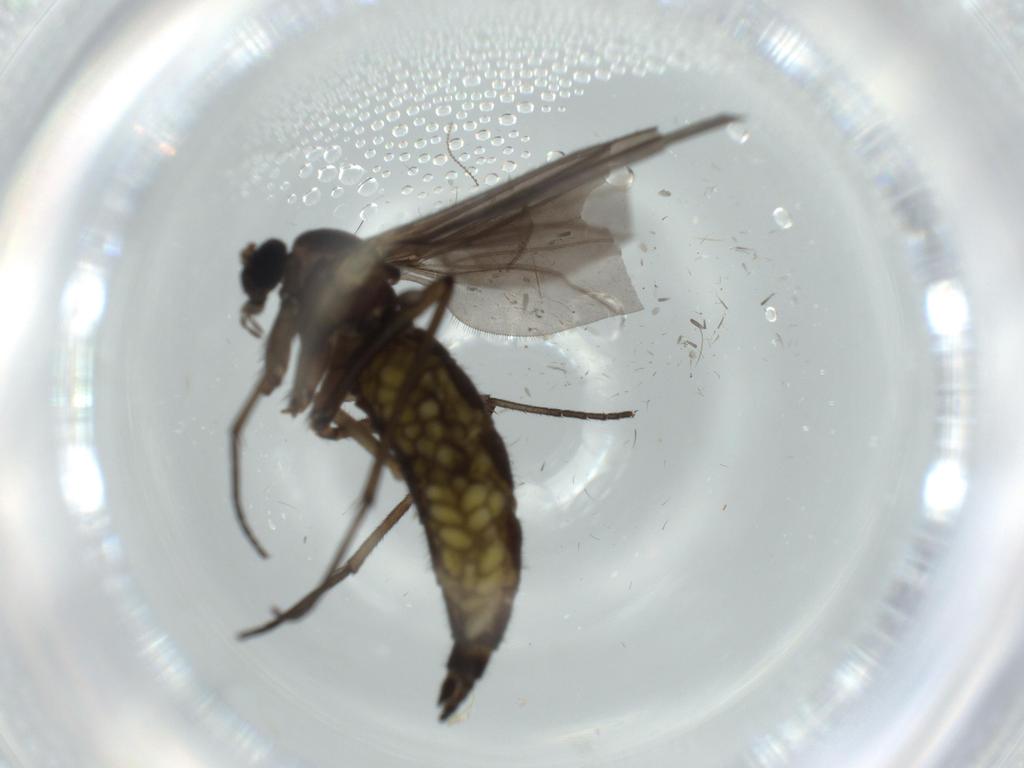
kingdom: Animalia
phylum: Arthropoda
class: Insecta
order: Diptera
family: Sciaridae
